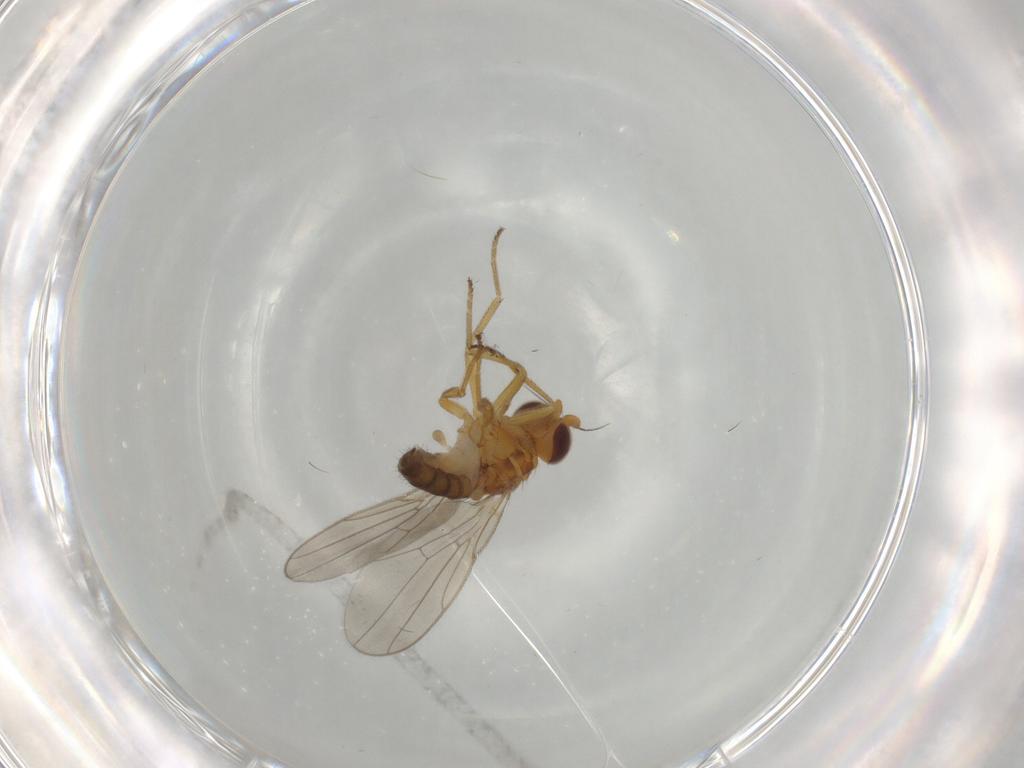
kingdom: Animalia
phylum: Arthropoda
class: Insecta
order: Diptera
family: Chloropidae
